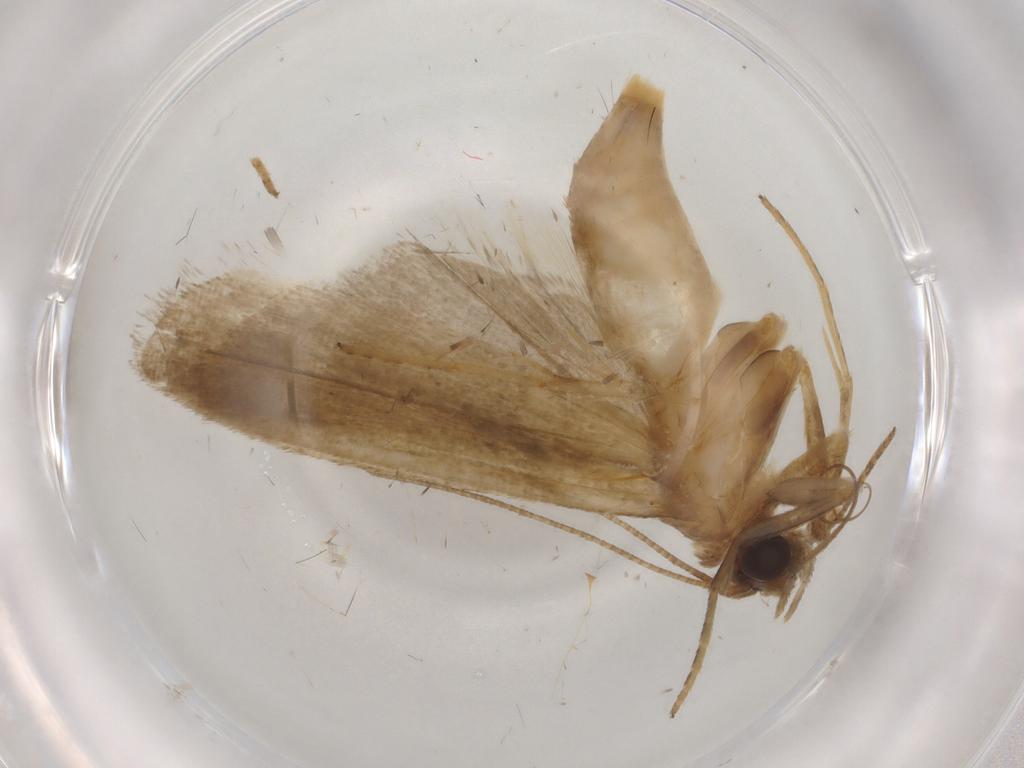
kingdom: Animalia
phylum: Arthropoda
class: Insecta
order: Lepidoptera
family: Noctuidae
